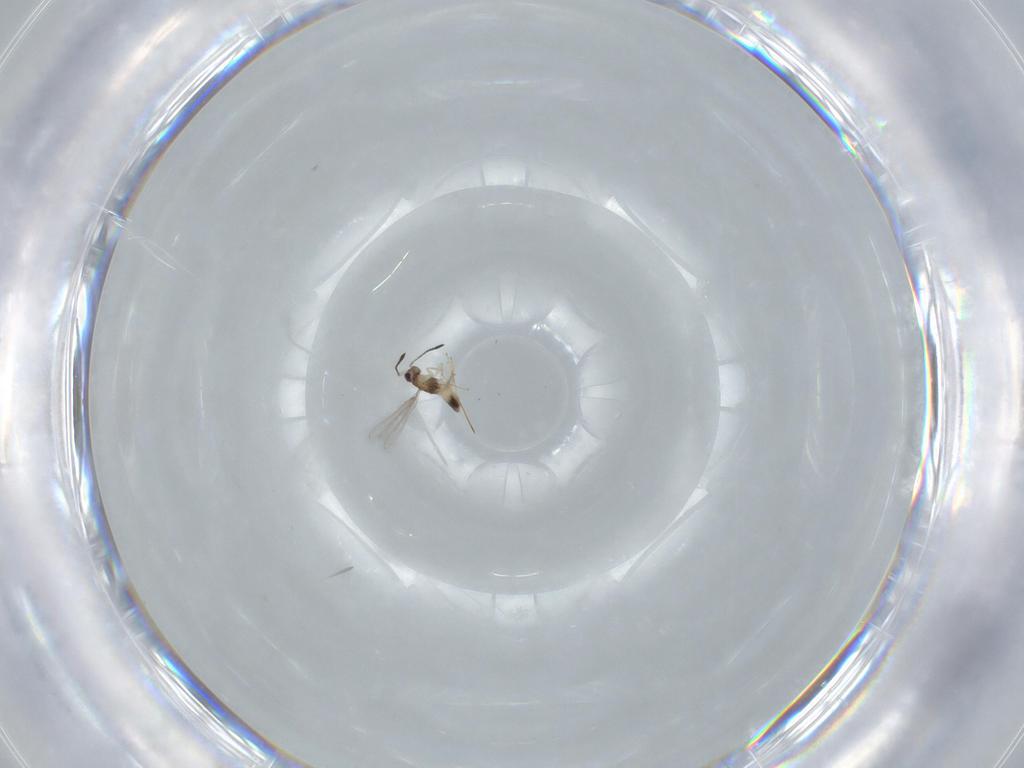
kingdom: Animalia
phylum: Arthropoda
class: Insecta
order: Hymenoptera
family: Mymaridae
